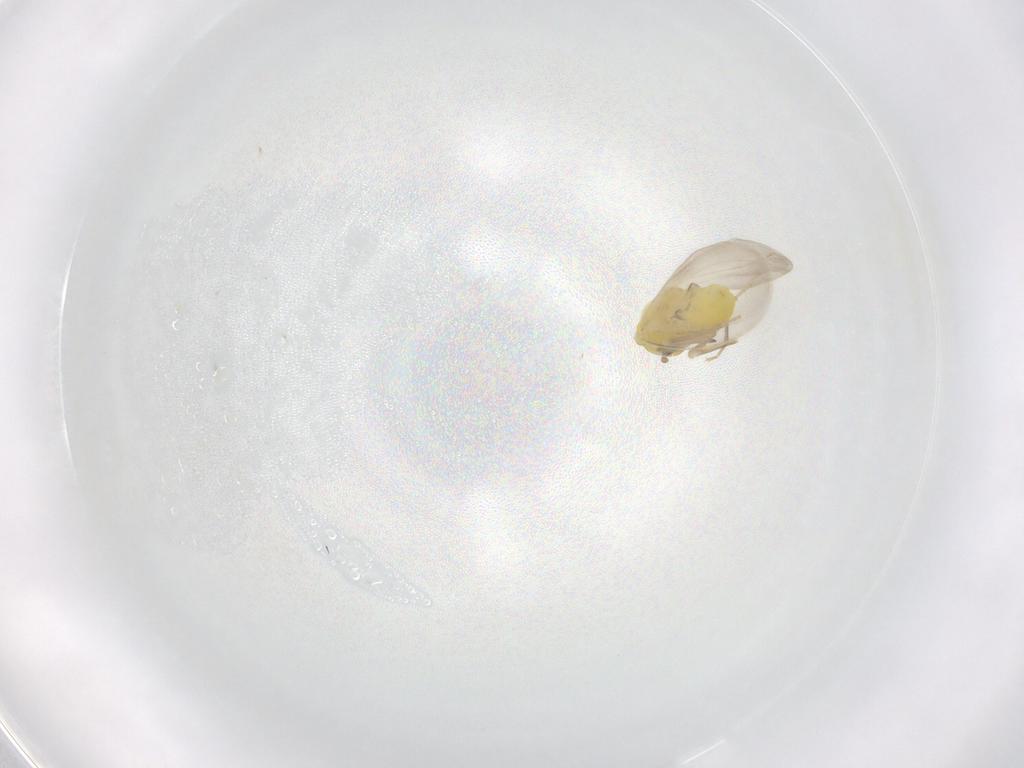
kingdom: Animalia
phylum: Arthropoda
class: Insecta
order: Hemiptera
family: Aleyrodidae
